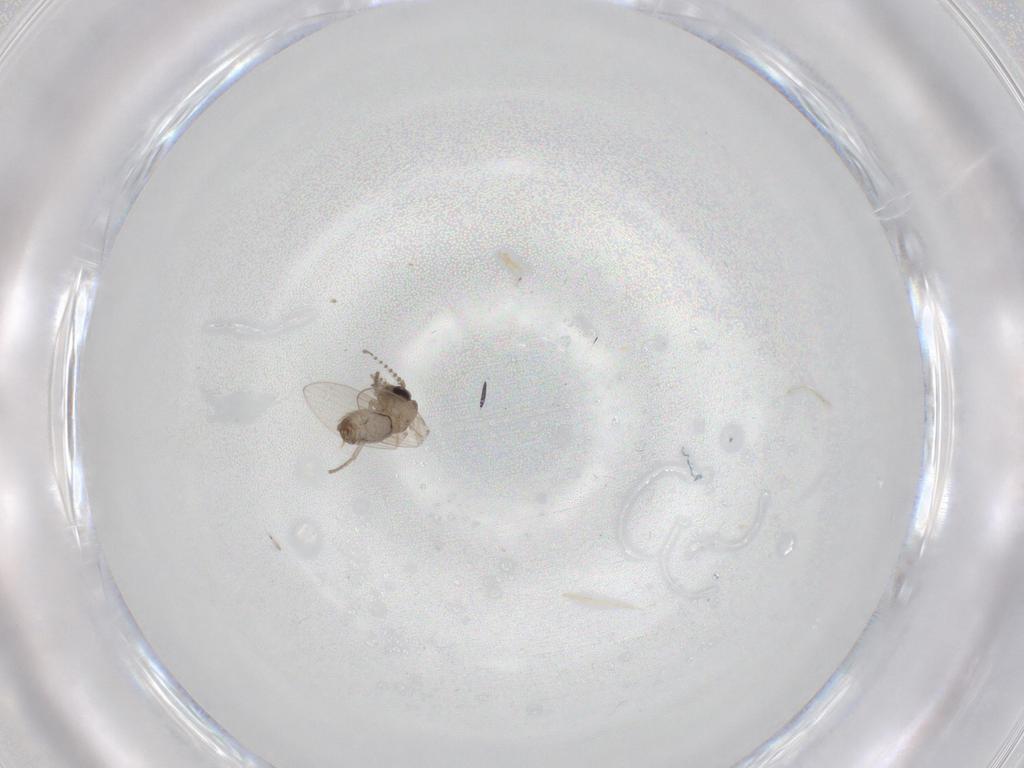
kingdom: Animalia
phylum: Arthropoda
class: Insecta
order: Diptera
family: Psychodidae
